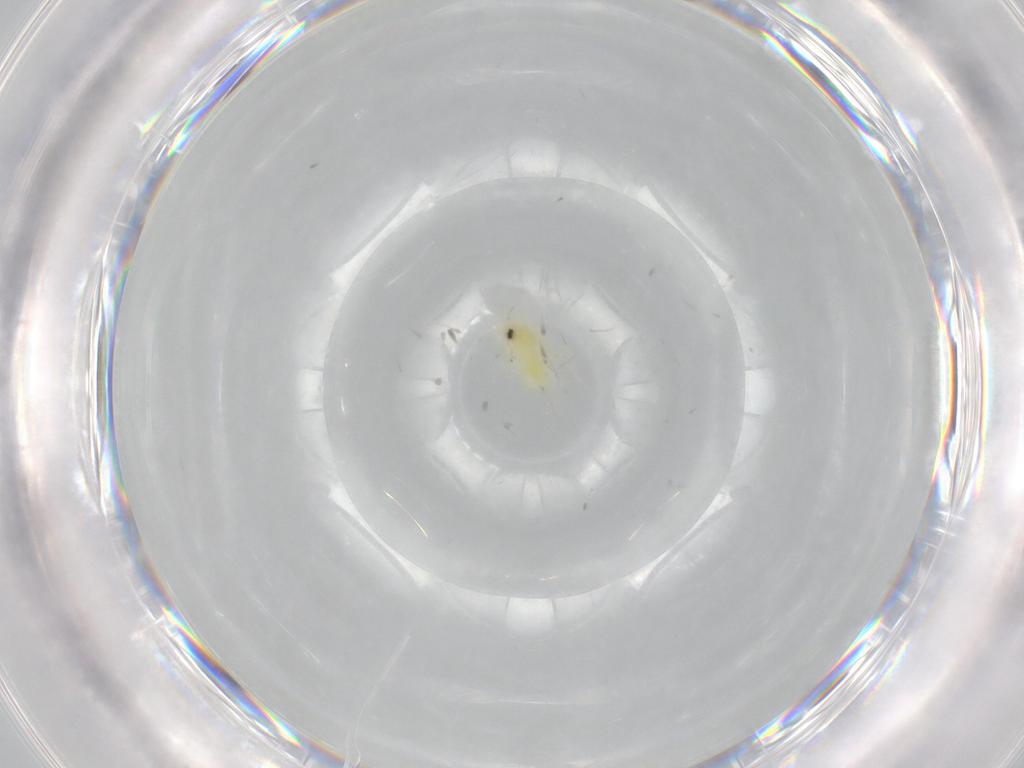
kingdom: Animalia
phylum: Arthropoda
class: Insecta
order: Hemiptera
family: Aleyrodidae
